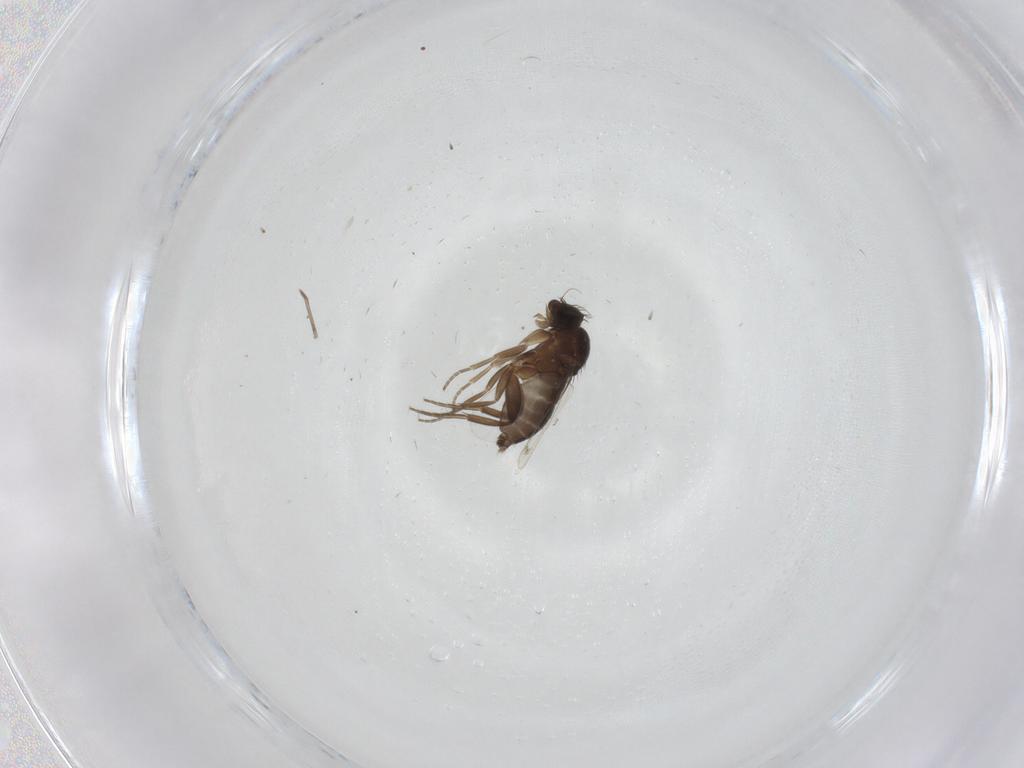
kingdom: Animalia
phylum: Arthropoda
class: Insecta
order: Diptera
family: Phoridae
